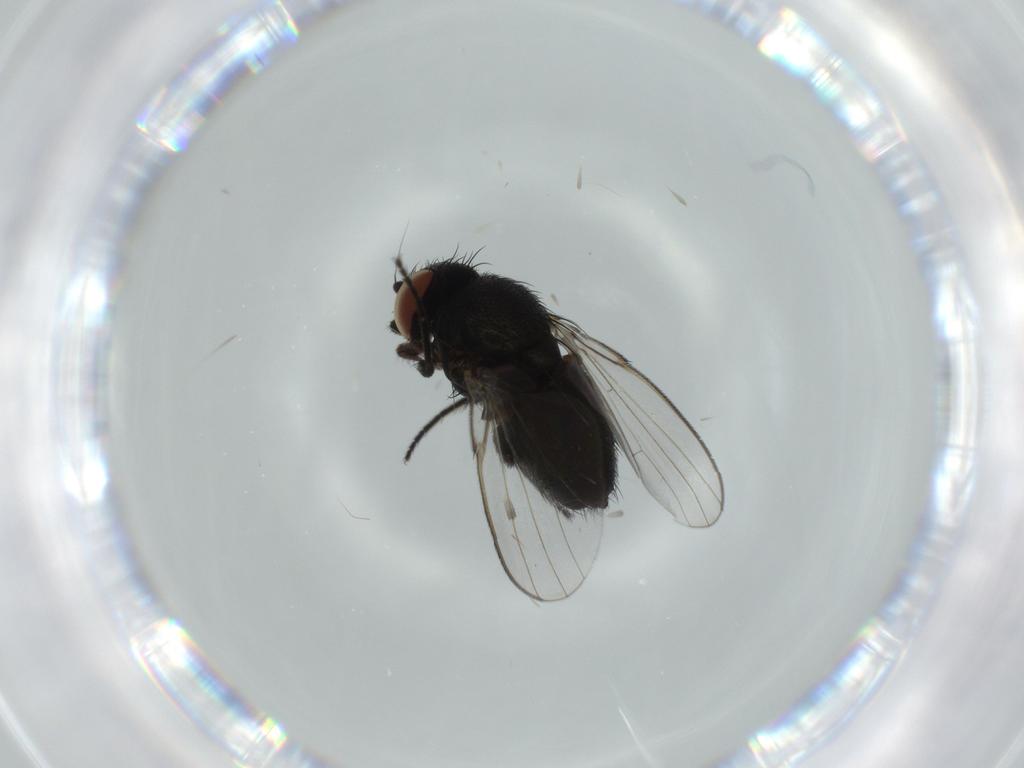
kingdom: Animalia
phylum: Arthropoda
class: Insecta
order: Diptera
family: Milichiidae
